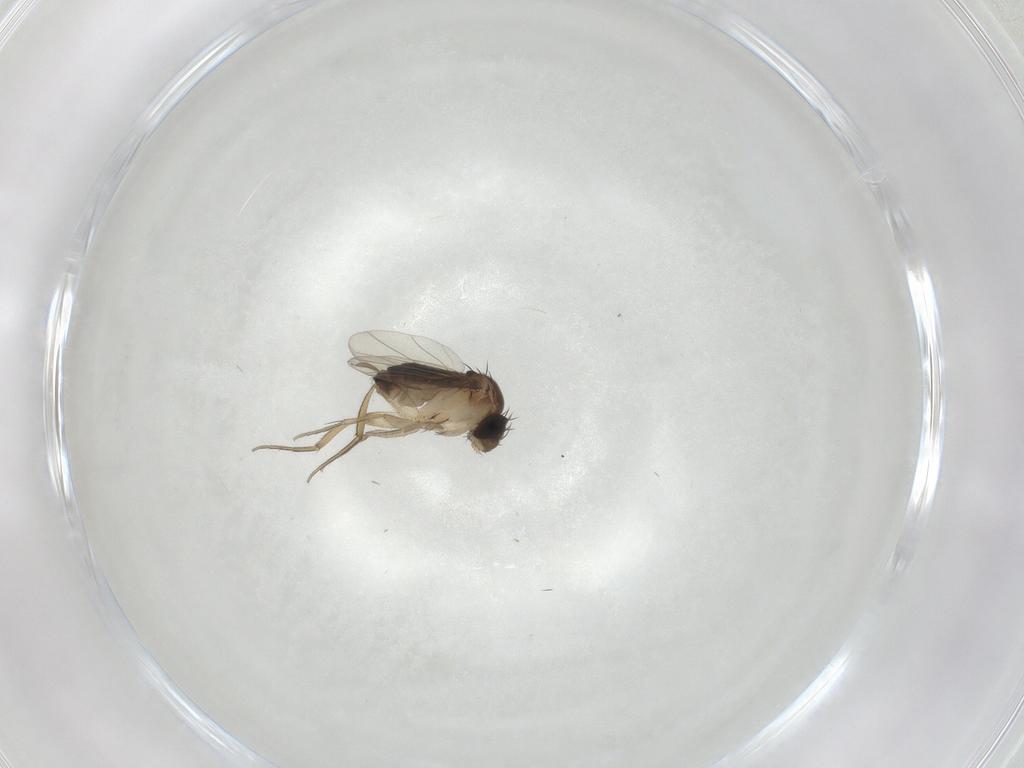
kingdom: Animalia
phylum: Arthropoda
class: Insecta
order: Diptera
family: Phoridae
